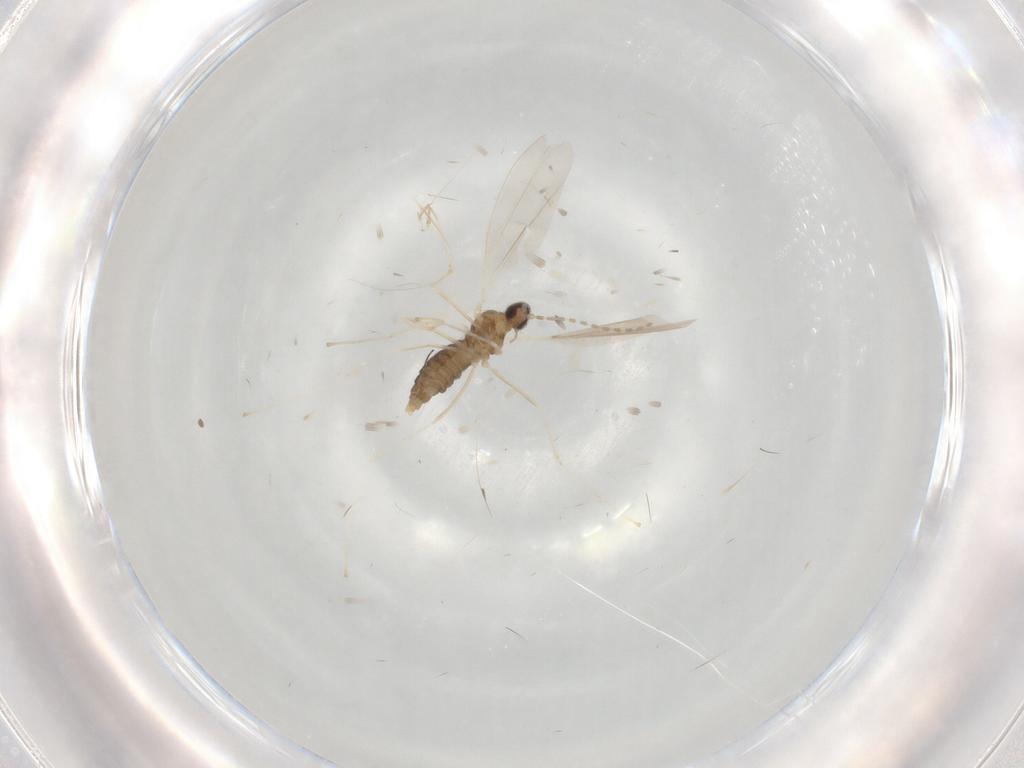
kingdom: Animalia
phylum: Arthropoda
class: Insecta
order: Diptera
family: Cecidomyiidae
